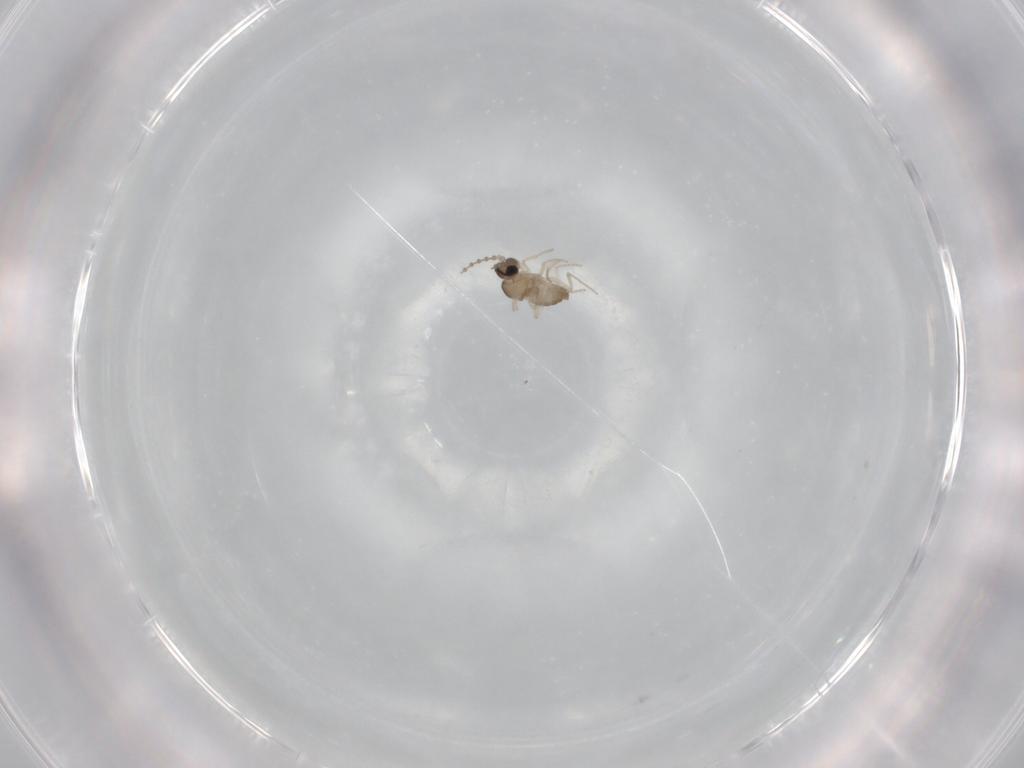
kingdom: Animalia
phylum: Arthropoda
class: Insecta
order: Diptera
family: Cecidomyiidae
